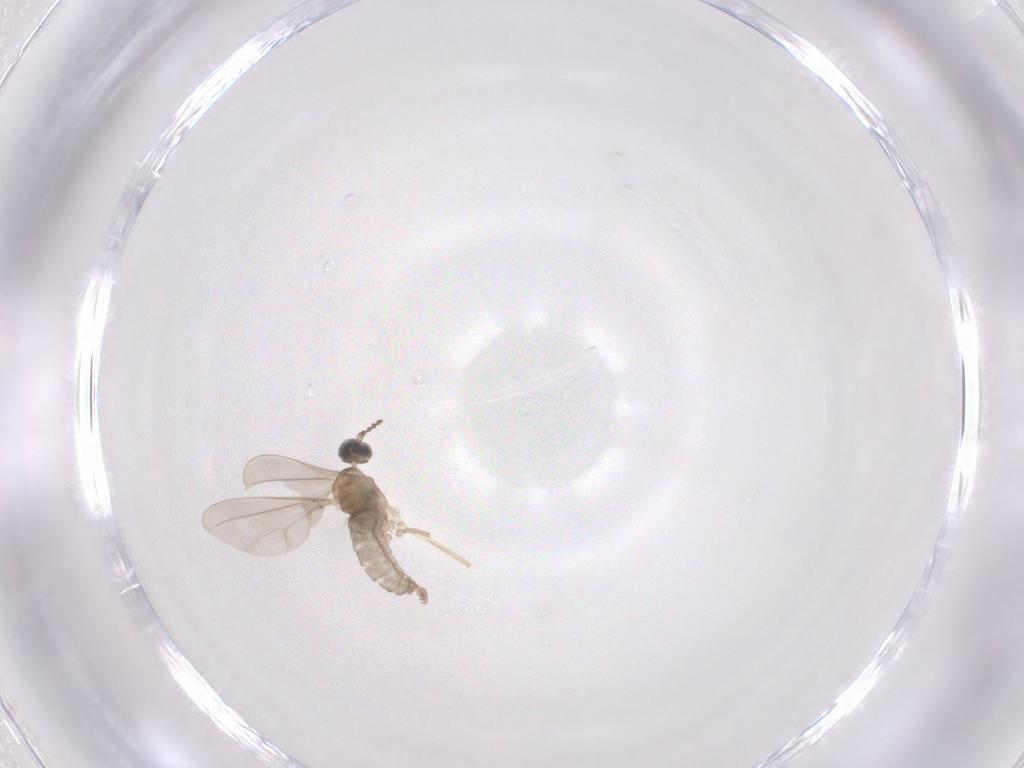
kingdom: Animalia
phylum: Arthropoda
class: Insecta
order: Diptera
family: Cecidomyiidae
